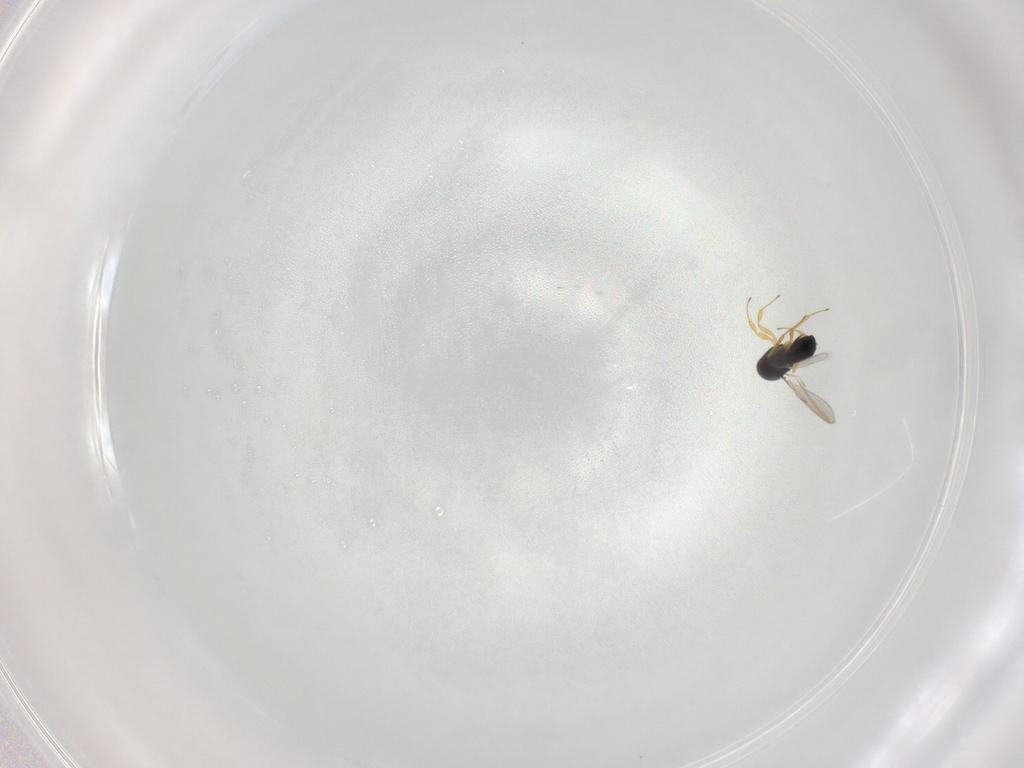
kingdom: Animalia
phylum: Arthropoda
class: Insecta
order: Hymenoptera
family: Scelionidae
